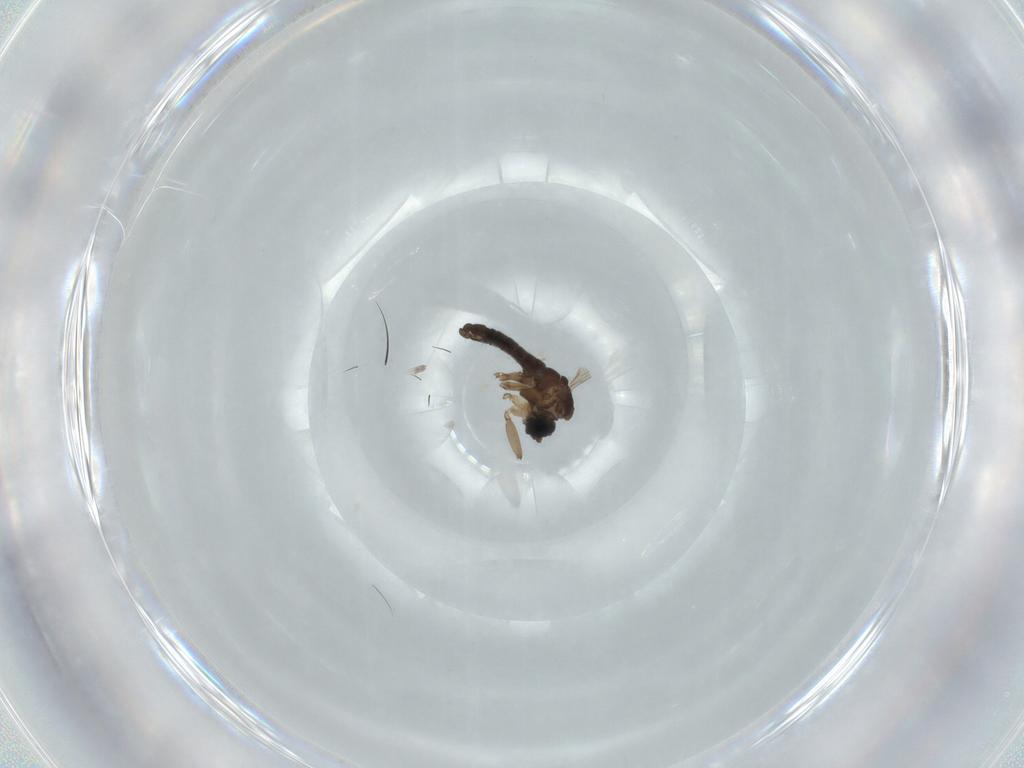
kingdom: Animalia
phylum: Arthropoda
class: Insecta
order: Diptera
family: Sciaridae
